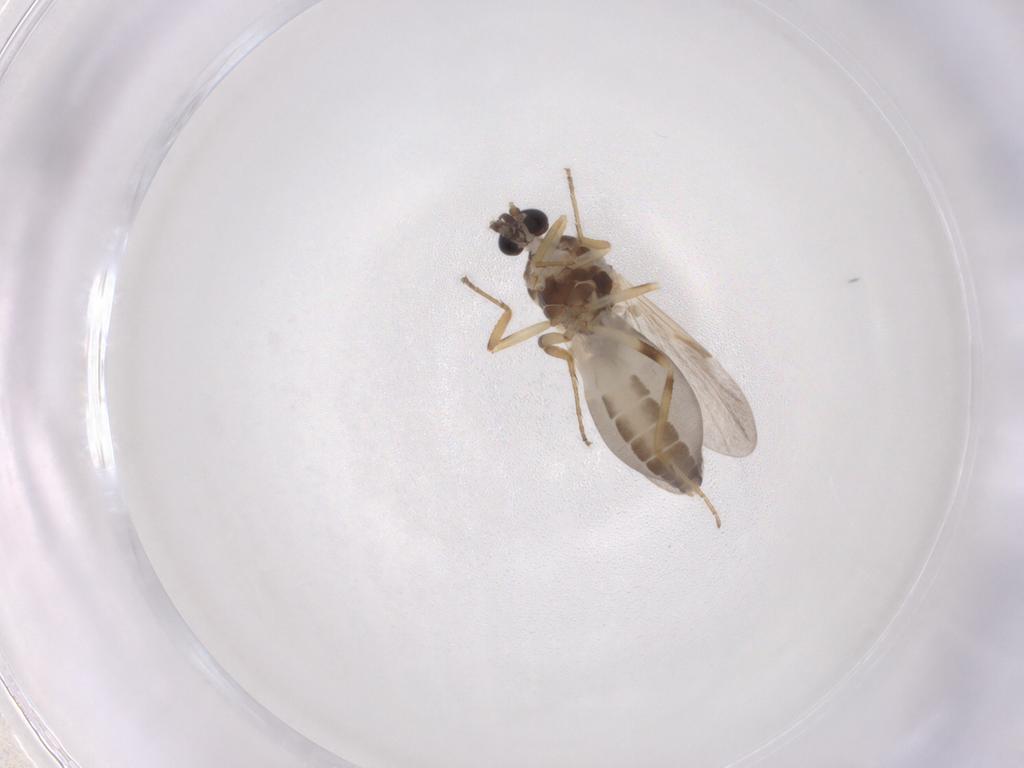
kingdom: Animalia
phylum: Arthropoda
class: Insecta
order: Diptera
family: Ceratopogonidae
